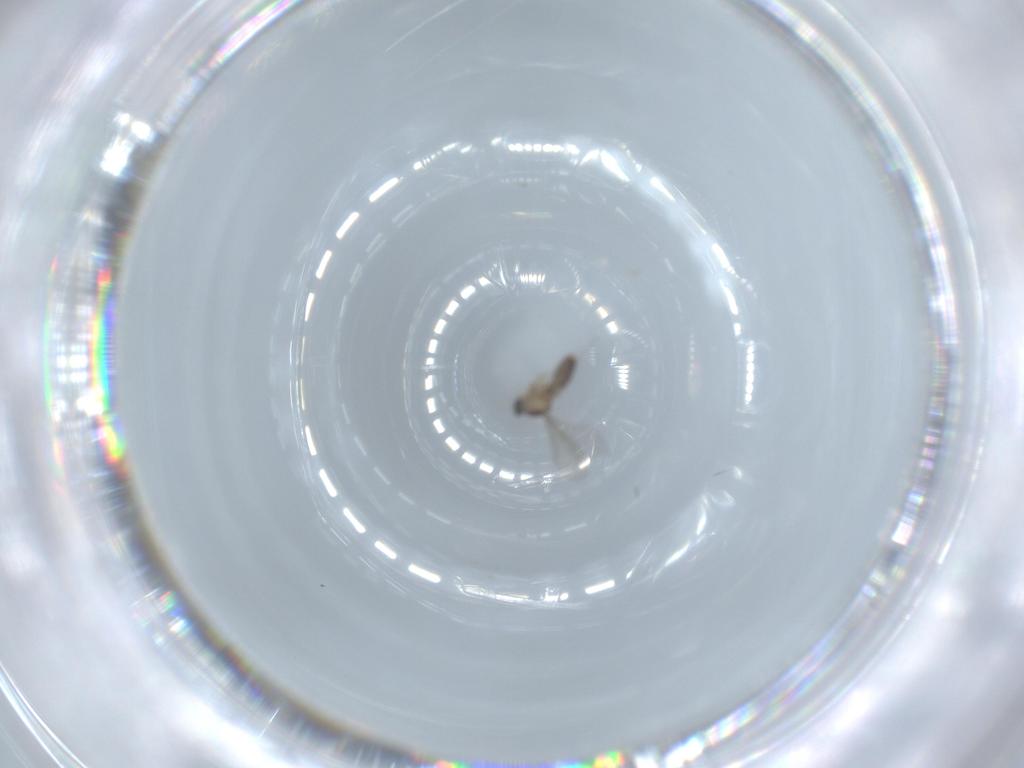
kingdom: Animalia
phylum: Arthropoda
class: Insecta
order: Diptera
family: Cecidomyiidae
